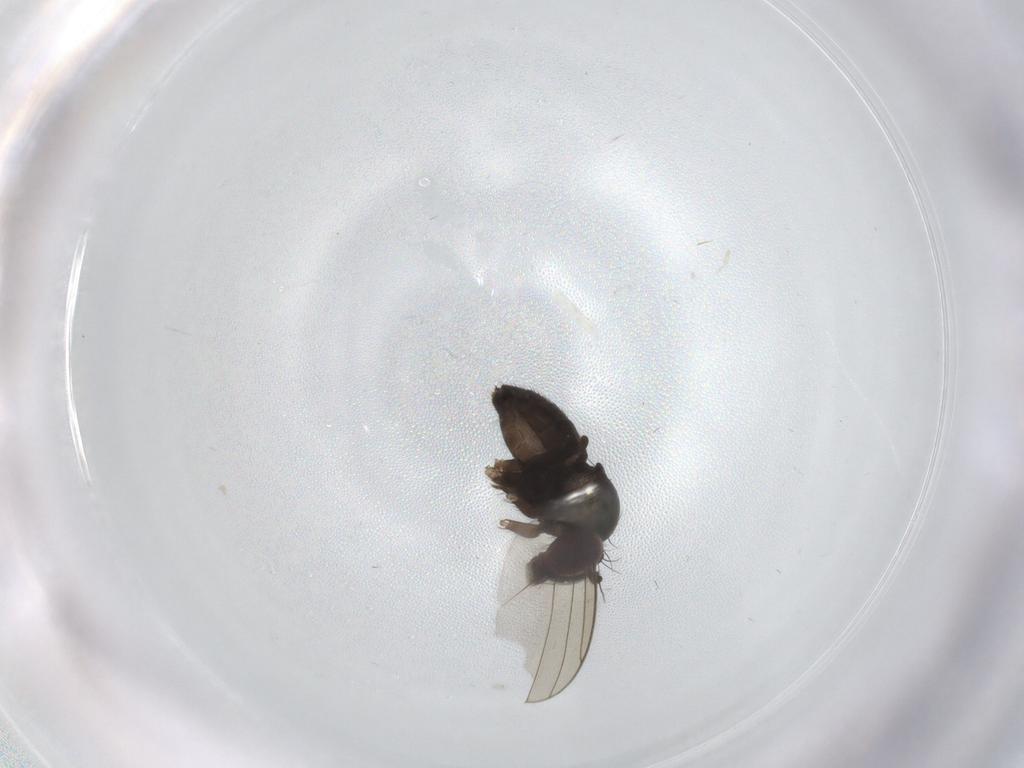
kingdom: Animalia
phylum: Arthropoda
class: Insecta
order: Diptera
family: Dolichopodidae
